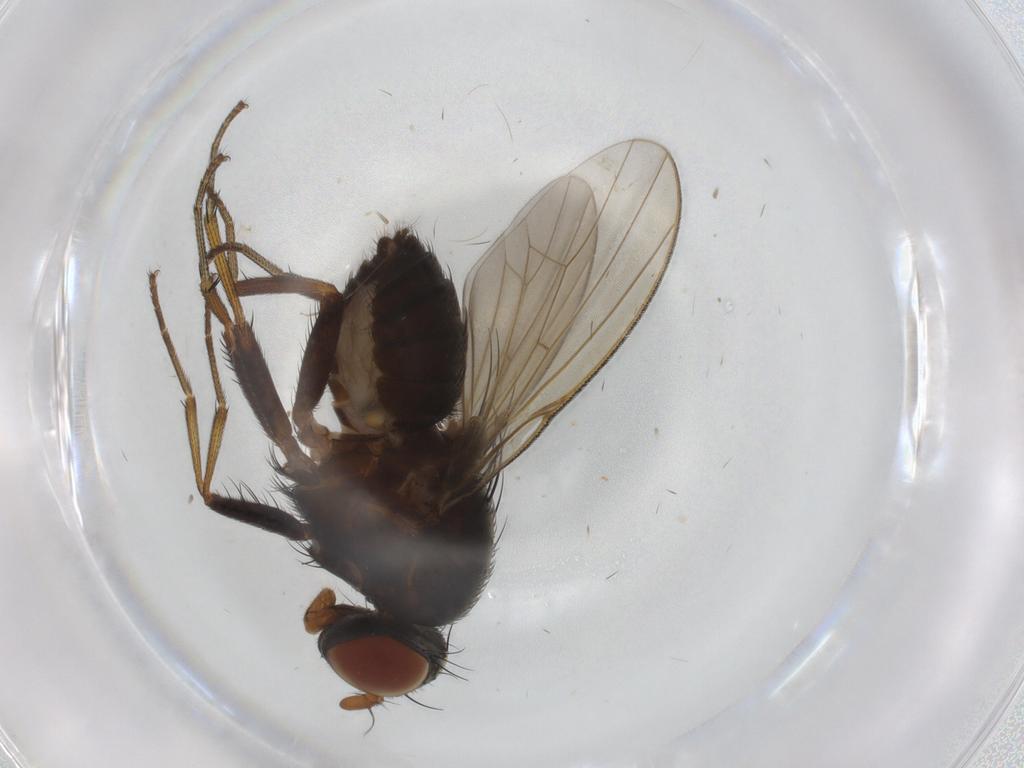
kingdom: Animalia
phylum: Arthropoda
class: Insecta
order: Diptera
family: Cecidomyiidae
